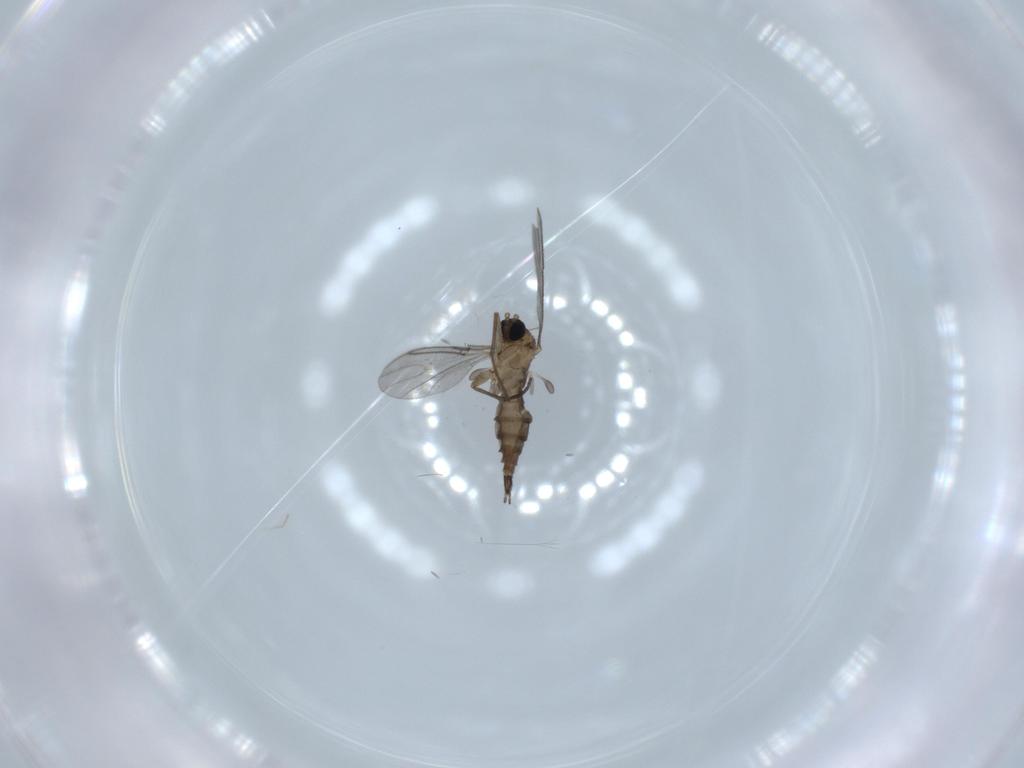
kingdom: Animalia
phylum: Arthropoda
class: Insecta
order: Diptera
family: Sciaridae
